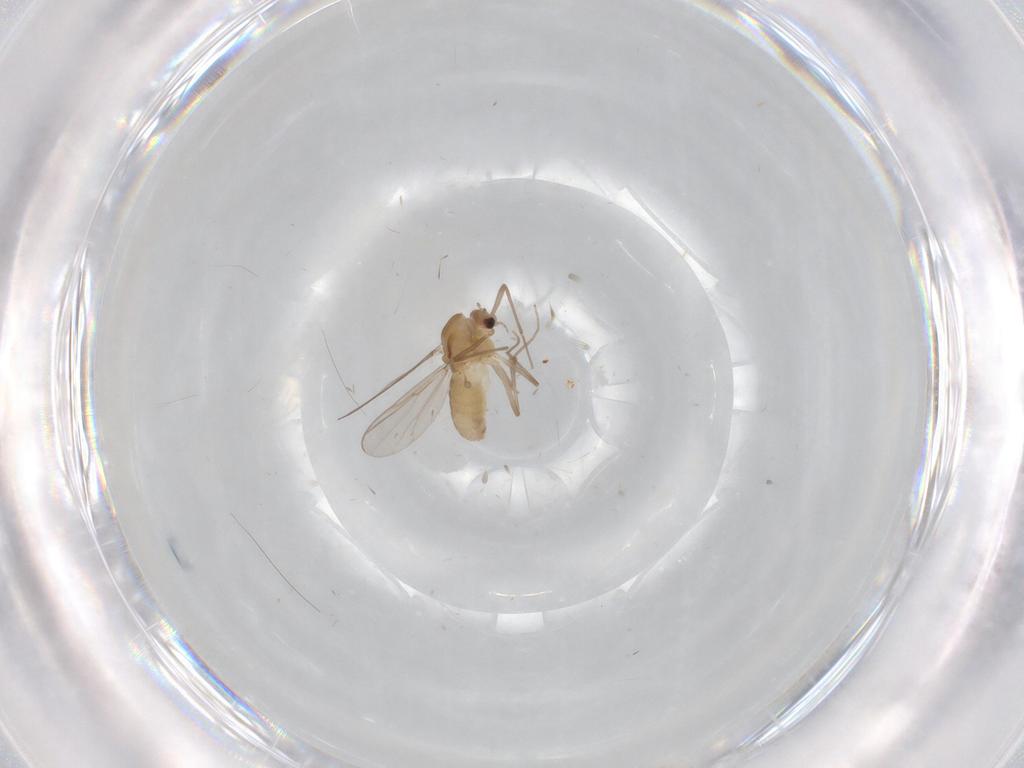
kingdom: Animalia
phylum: Arthropoda
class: Insecta
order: Diptera
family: Chironomidae
